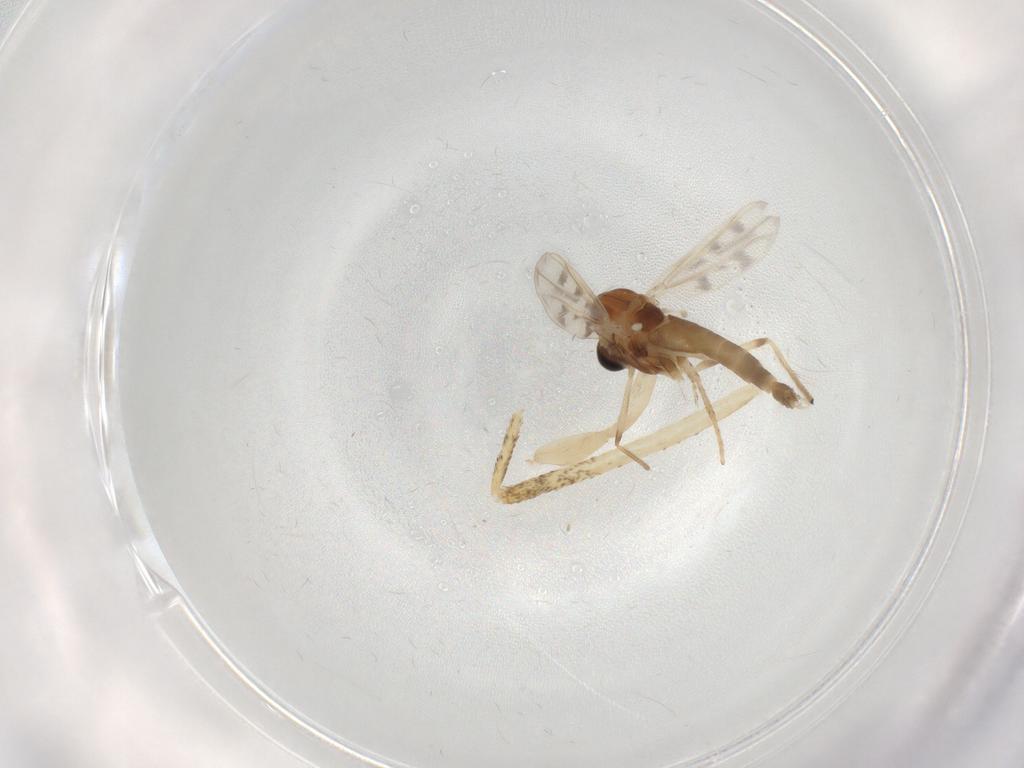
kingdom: Animalia
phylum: Arthropoda
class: Insecta
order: Diptera
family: Chironomidae
